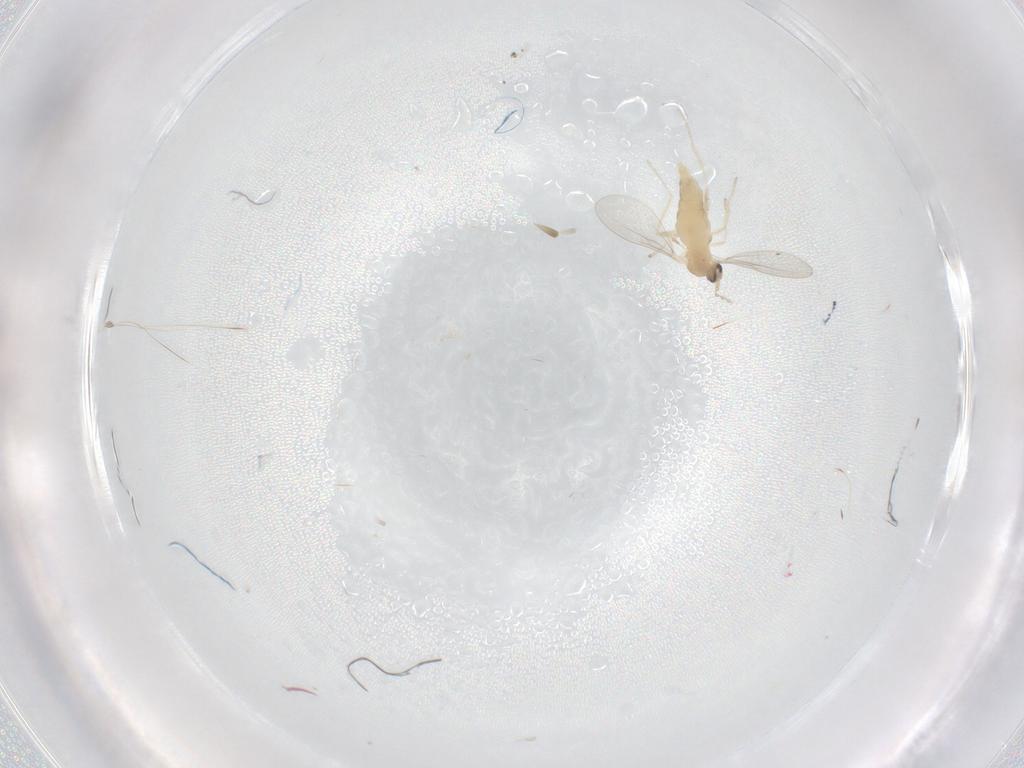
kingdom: Animalia
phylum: Arthropoda
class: Insecta
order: Diptera
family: Cecidomyiidae
